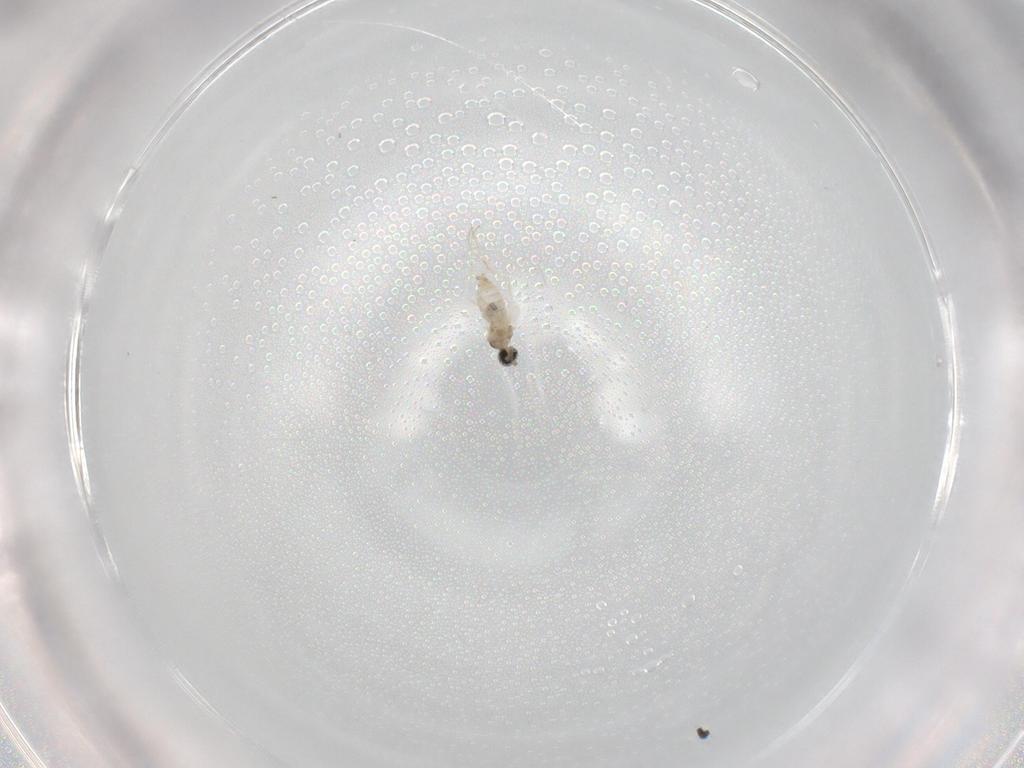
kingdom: Animalia
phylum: Arthropoda
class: Insecta
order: Diptera
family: Cecidomyiidae
